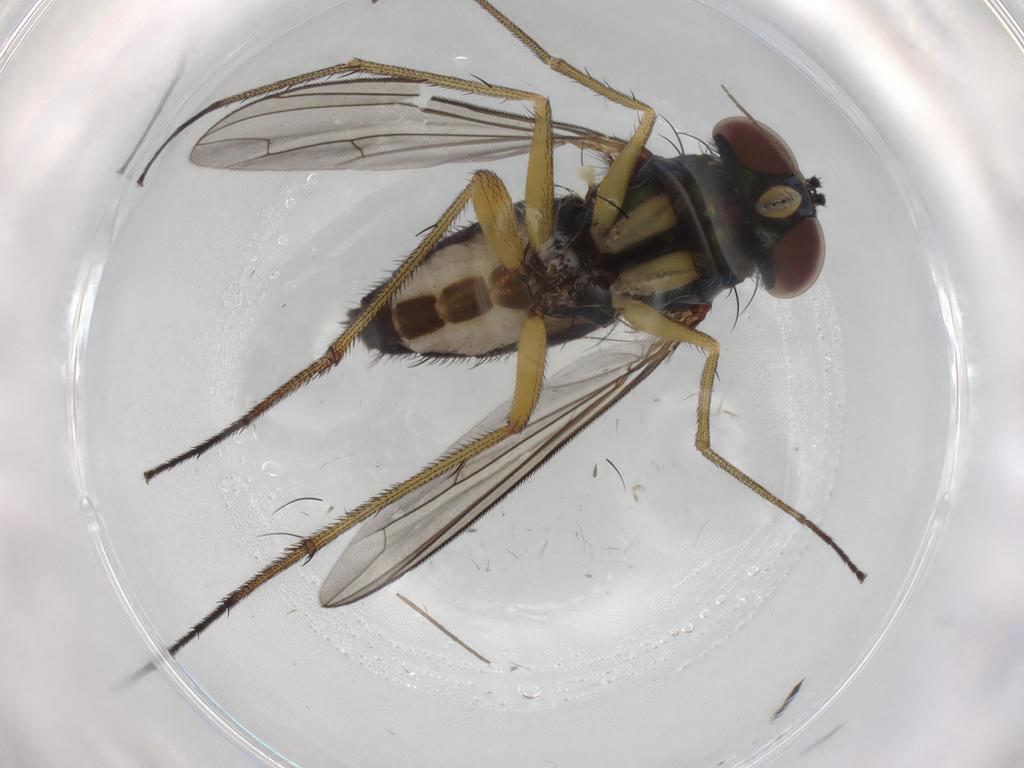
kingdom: Animalia
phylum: Arthropoda
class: Insecta
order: Diptera
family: Dolichopodidae
